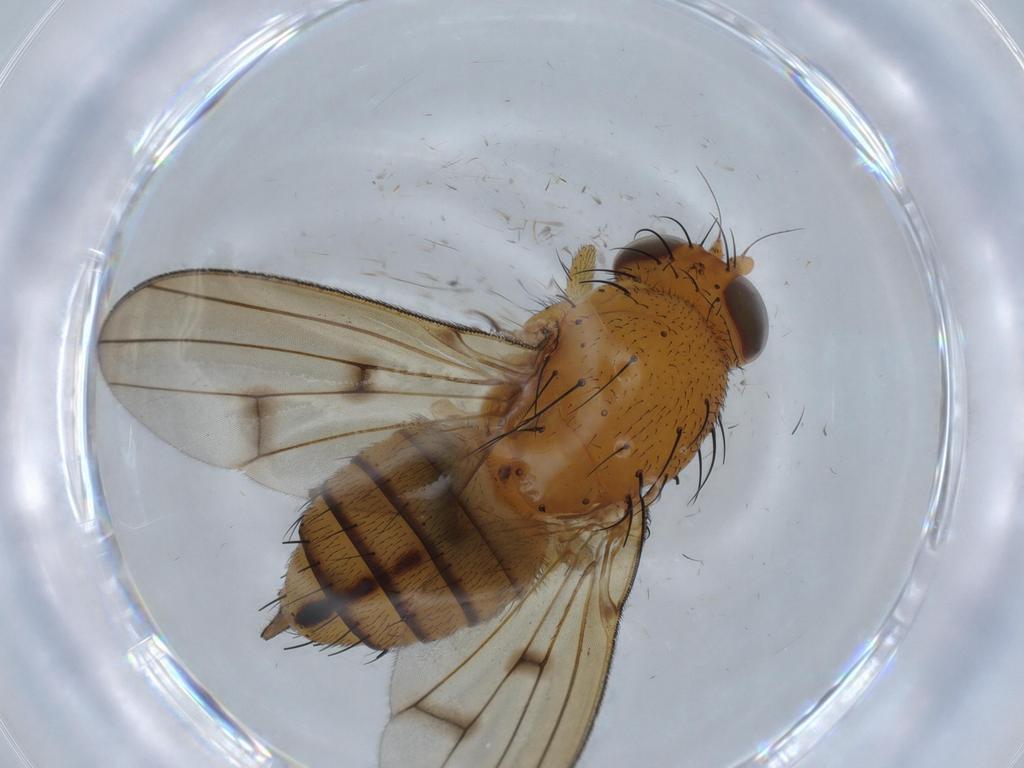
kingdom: Animalia
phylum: Arthropoda
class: Insecta
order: Diptera
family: Chironomidae
